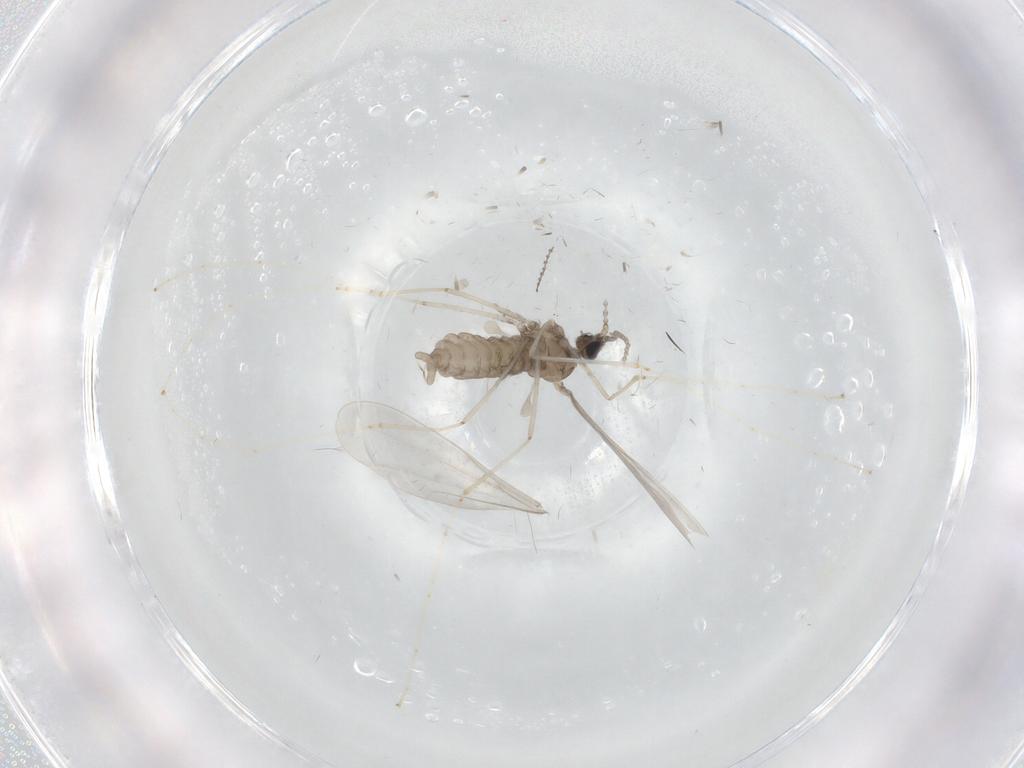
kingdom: Animalia
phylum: Arthropoda
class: Insecta
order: Diptera
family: Cecidomyiidae
